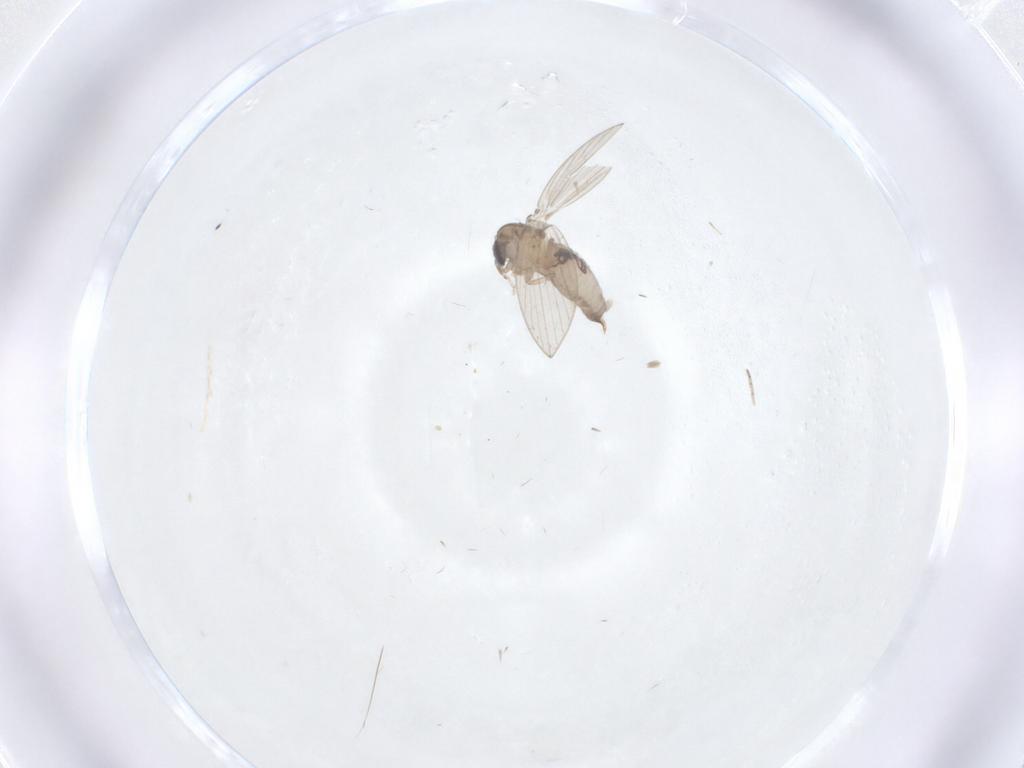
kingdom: Animalia
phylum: Arthropoda
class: Insecta
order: Diptera
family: Psychodidae
